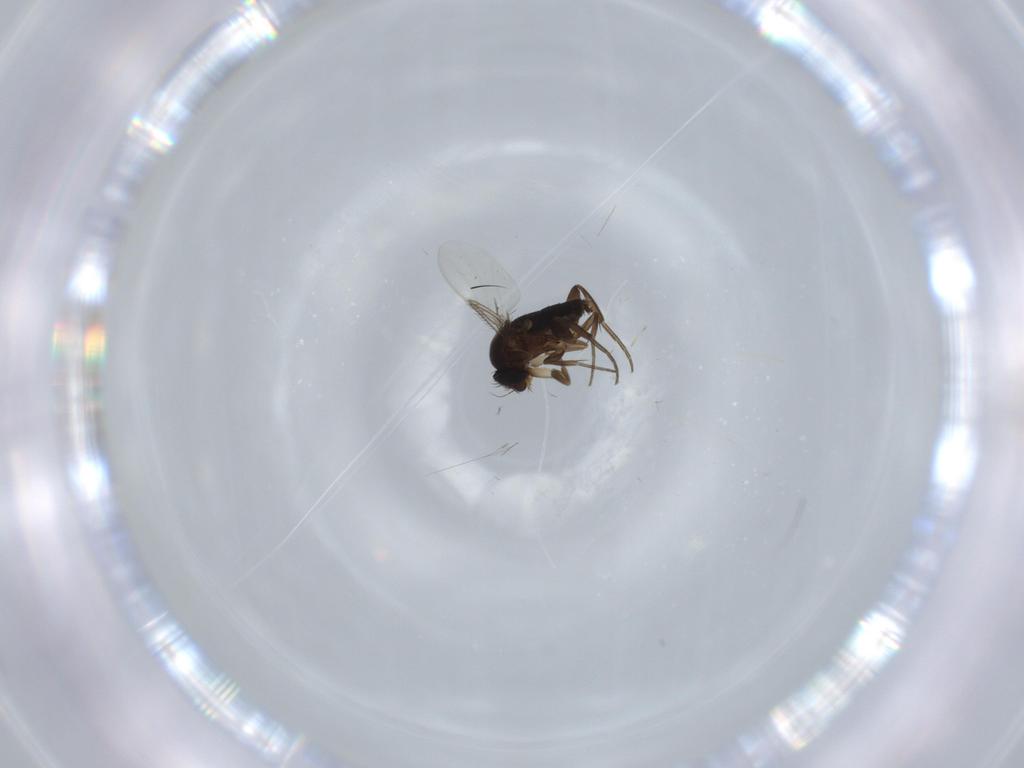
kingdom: Animalia
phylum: Arthropoda
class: Insecta
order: Diptera
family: Phoridae
